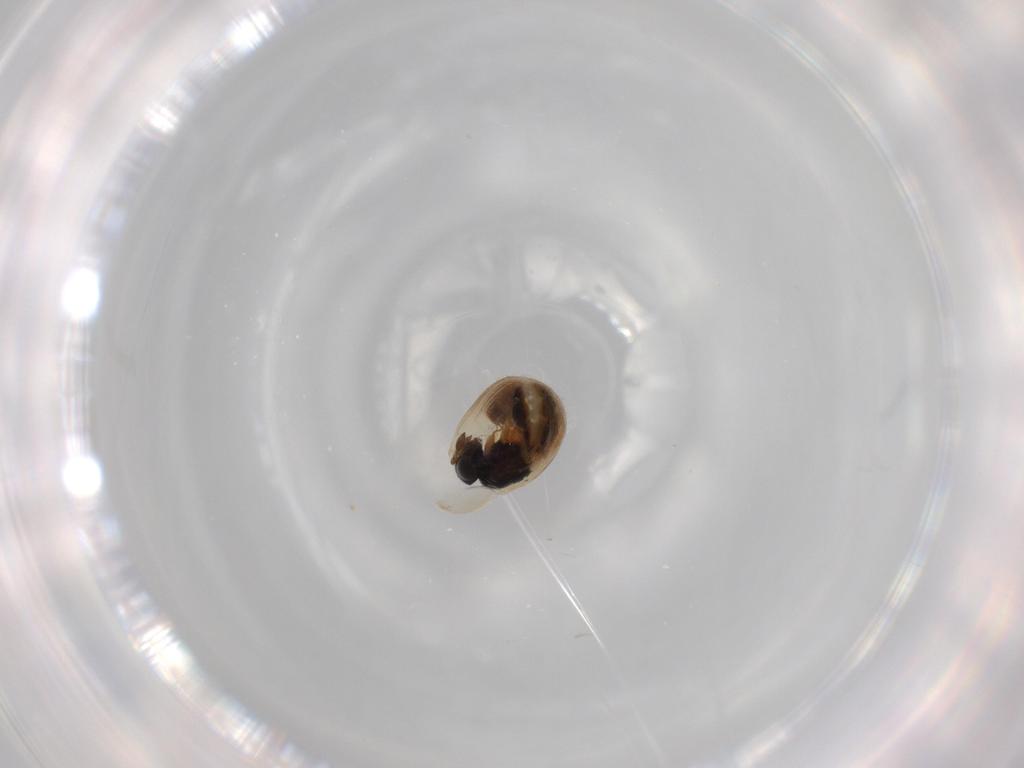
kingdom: Animalia
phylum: Arthropoda
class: Insecta
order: Hymenoptera
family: Scelionidae
